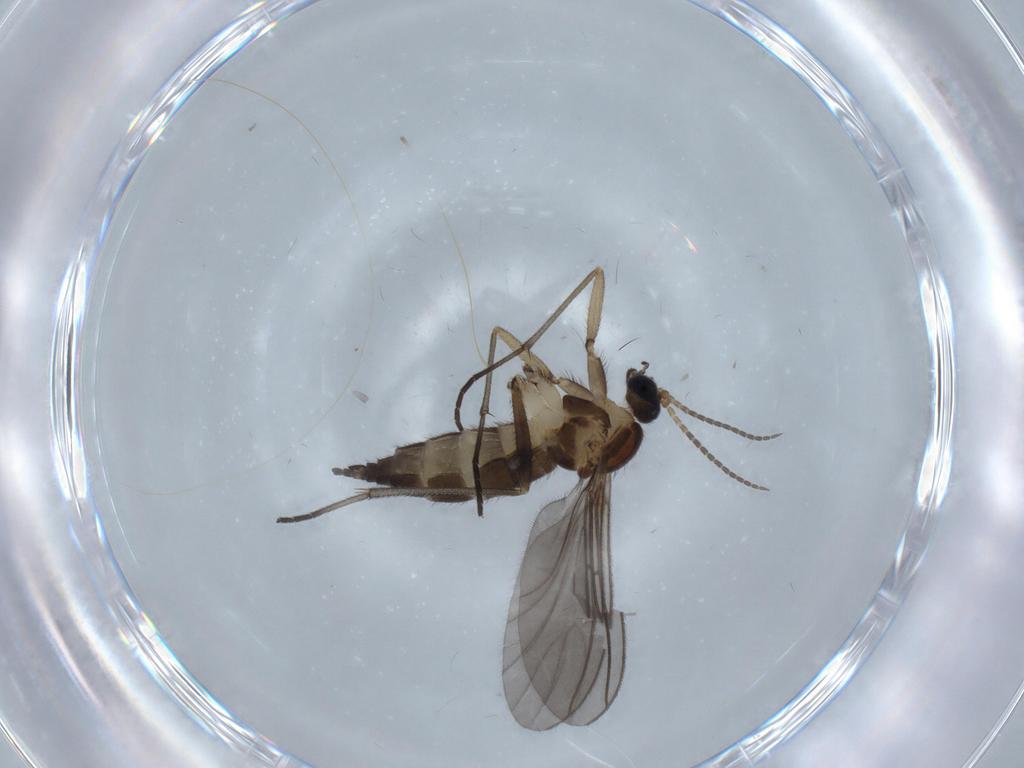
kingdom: Animalia
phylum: Arthropoda
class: Insecta
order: Diptera
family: Sciaridae
